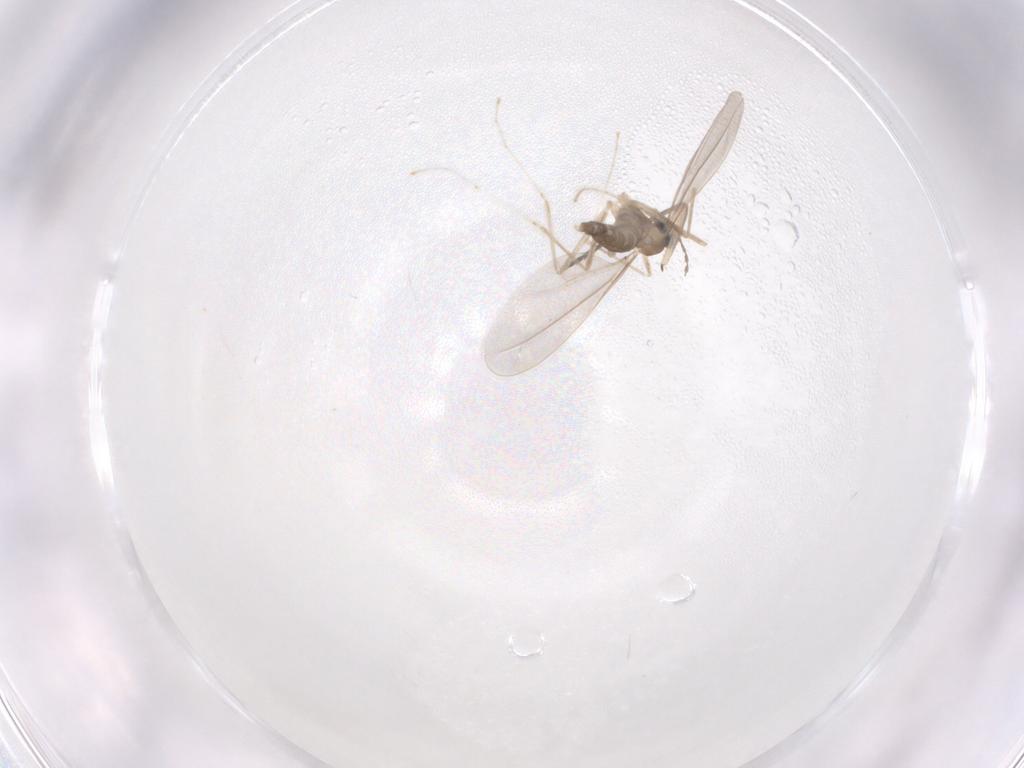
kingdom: Animalia
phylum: Arthropoda
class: Insecta
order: Diptera
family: Cecidomyiidae
